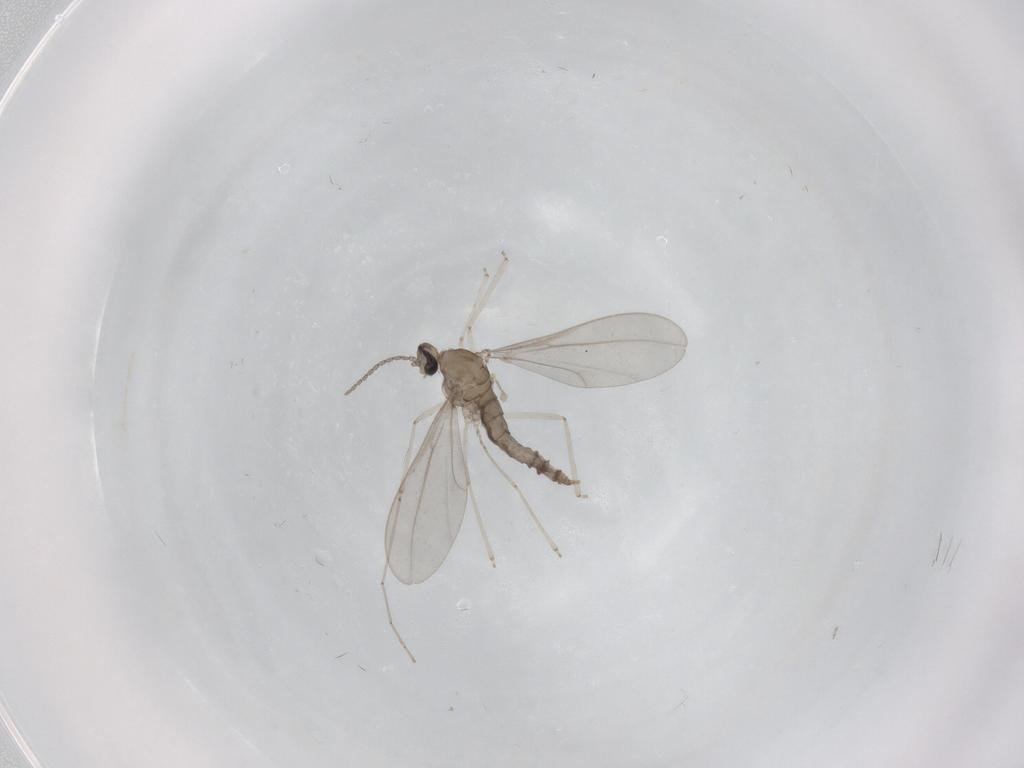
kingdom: Animalia
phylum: Arthropoda
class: Insecta
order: Diptera
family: Cecidomyiidae
